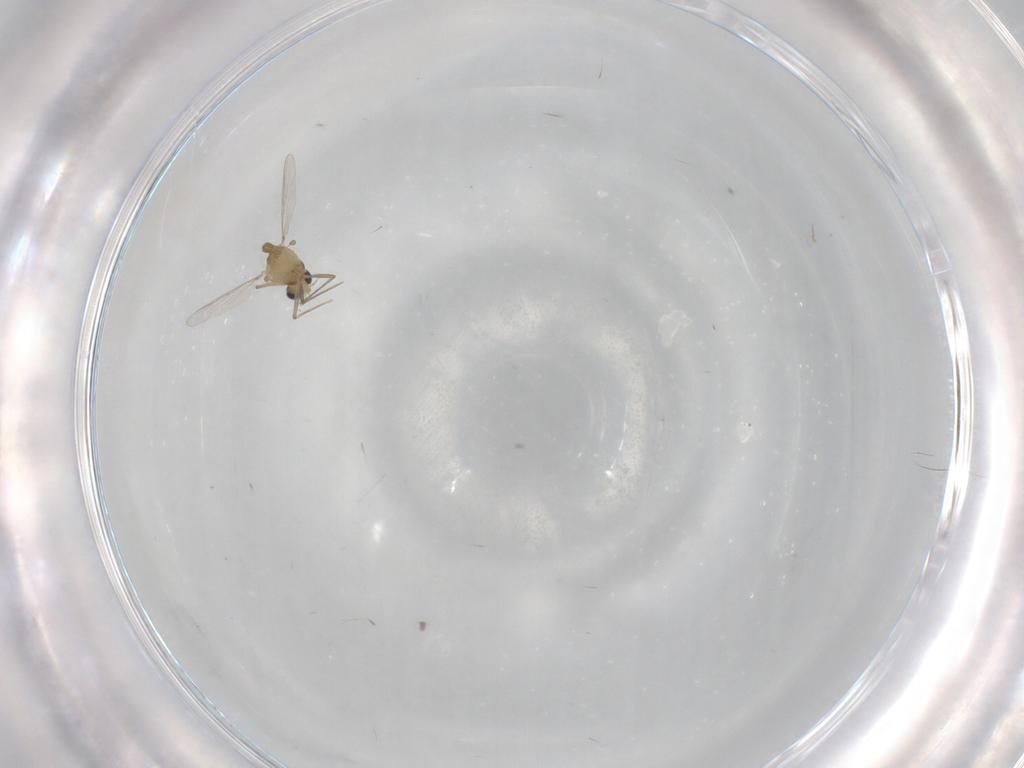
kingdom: Animalia
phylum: Arthropoda
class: Insecta
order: Diptera
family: Chironomidae
